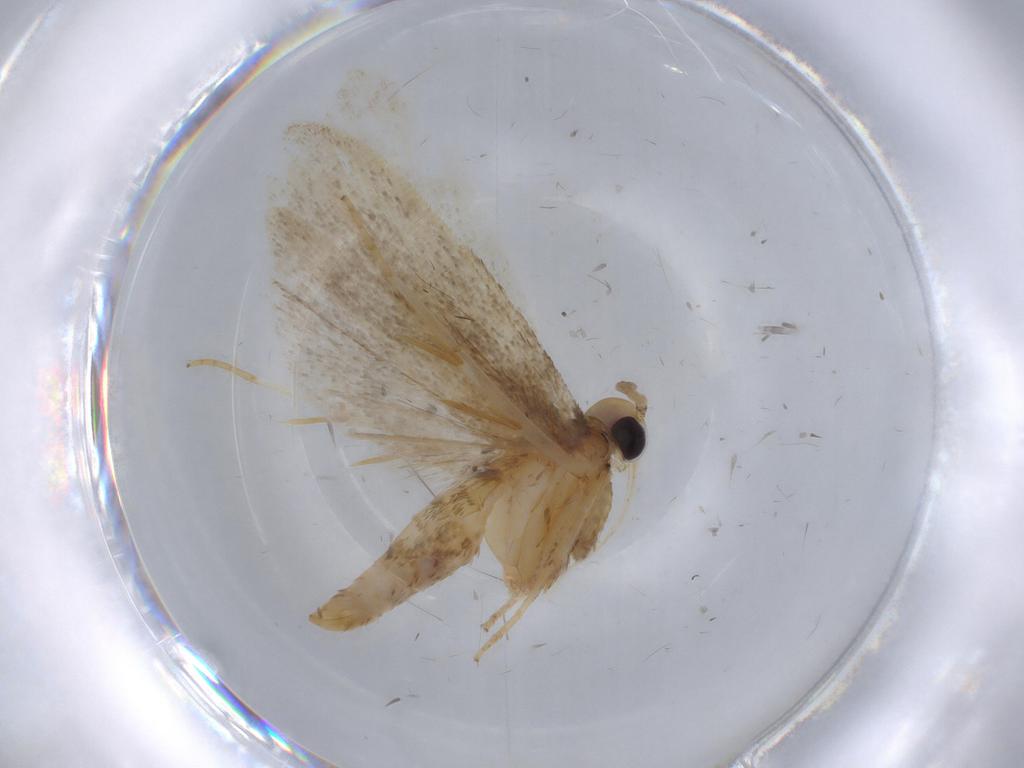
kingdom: Animalia
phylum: Arthropoda
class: Insecta
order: Lepidoptera
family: Autostichidae
